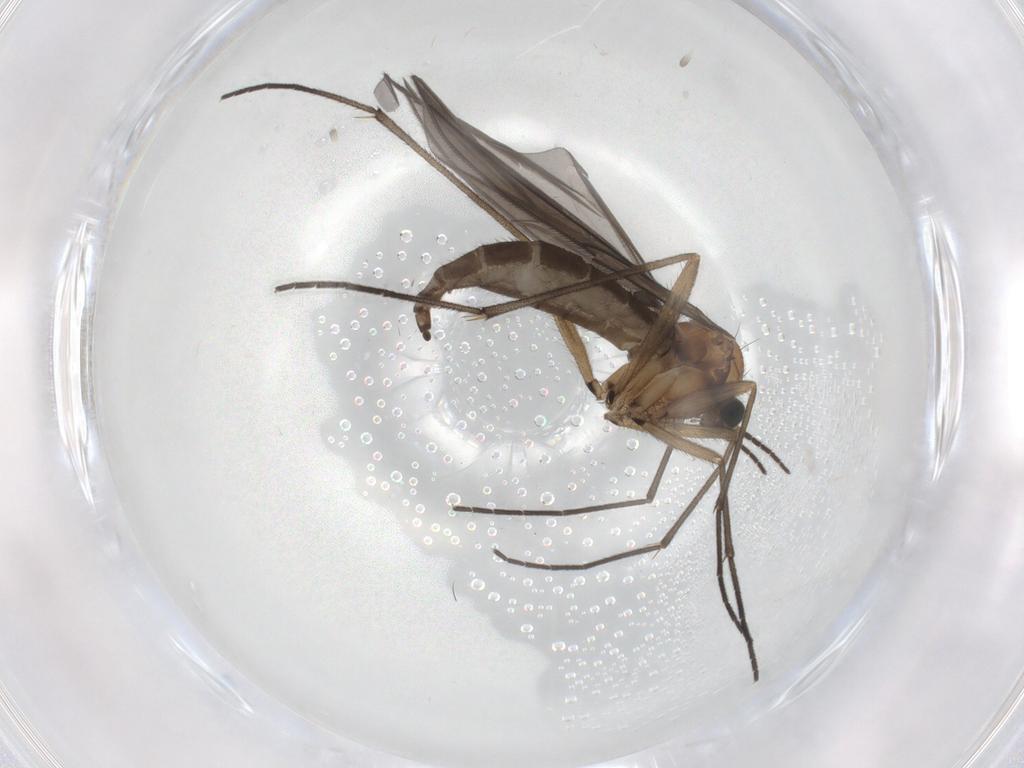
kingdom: Animalia
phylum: Arthropoda
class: Insecta
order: Diptera
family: Sciaridae
